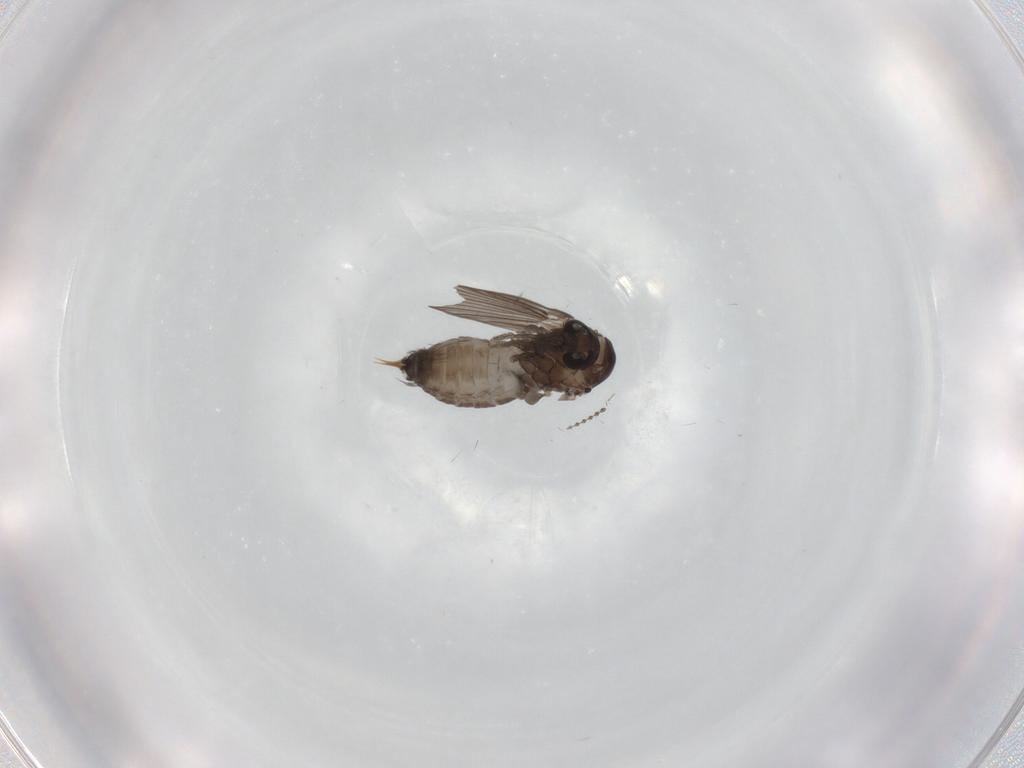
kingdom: Animalia
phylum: Arthropoda
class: Insecta
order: Diptera
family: Psychodidae
